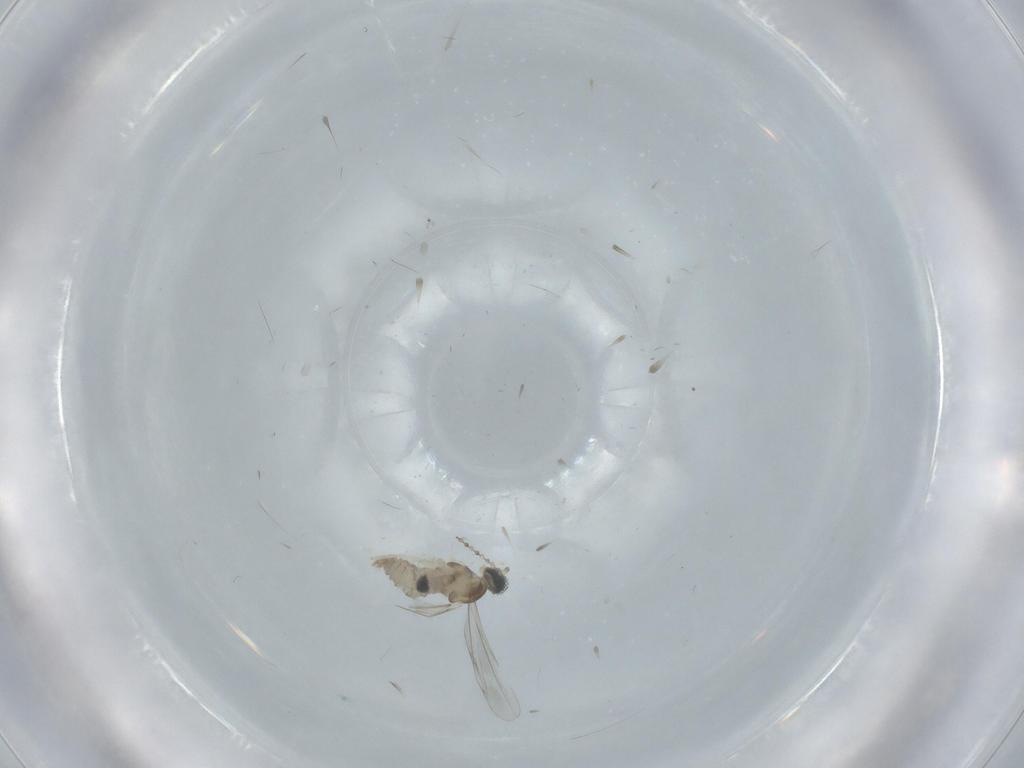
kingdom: Animalia
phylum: Arthropoda
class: Insecta
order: Diptera
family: Cecidomyiidae
